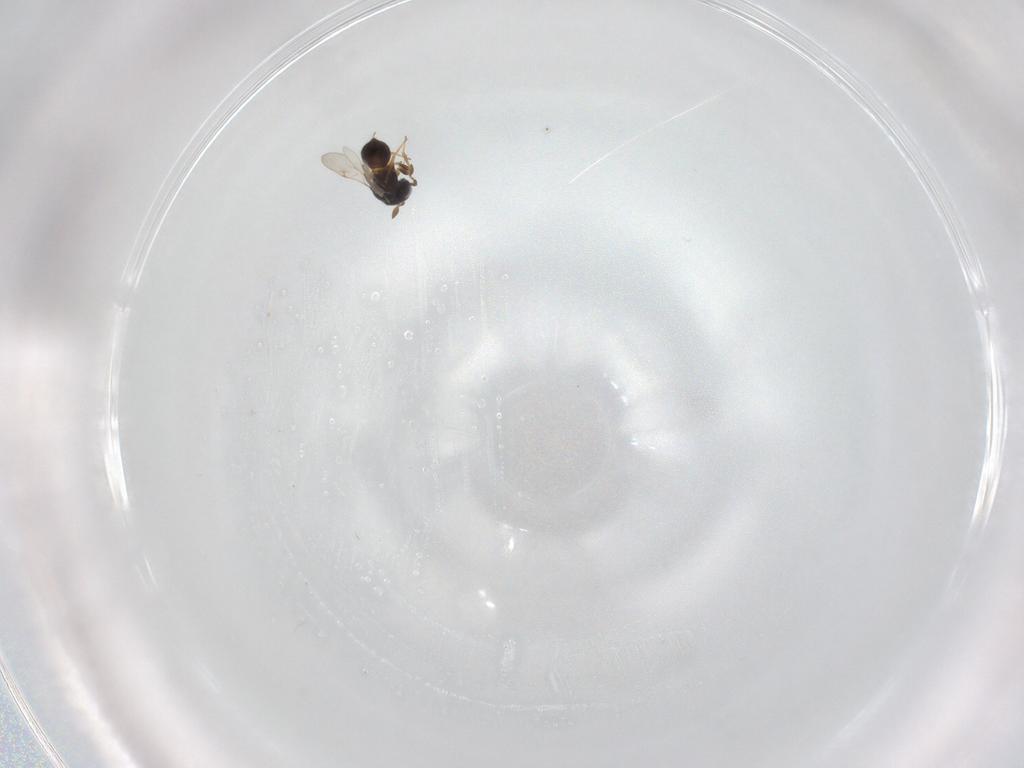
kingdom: Animalia
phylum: Arthropoda
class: Insecta
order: Hymenoptera
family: Scelionidae
